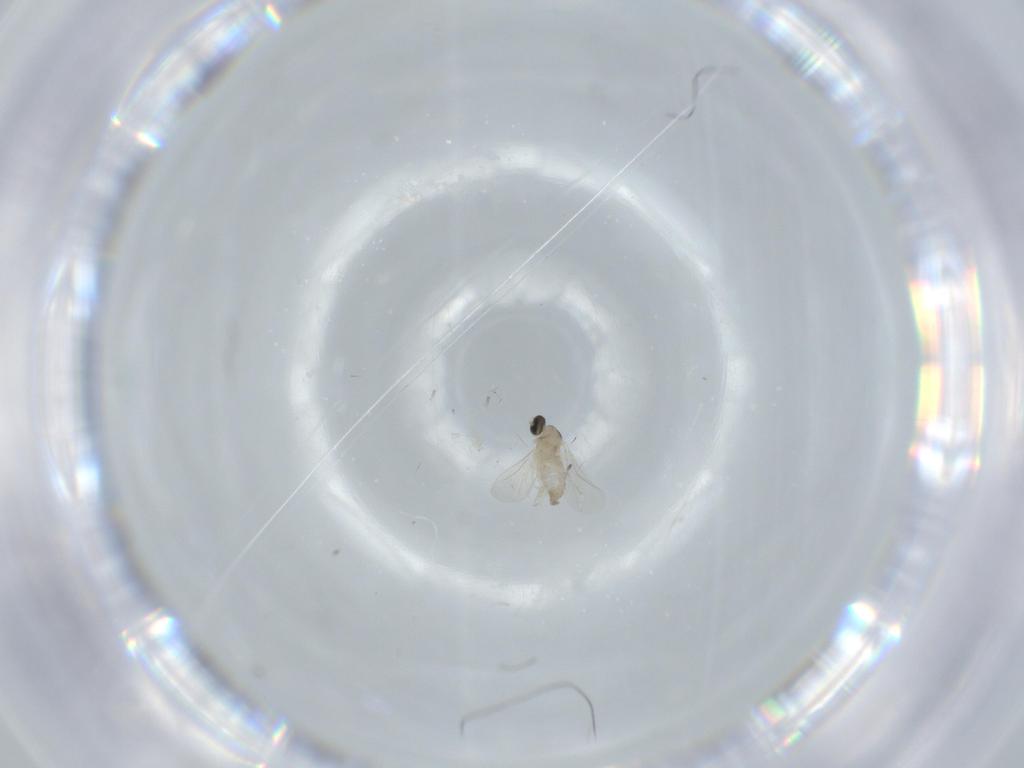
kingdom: Animalia
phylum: Arthropoda
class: Insecta
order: Diptera
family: Cecidomyiidae
